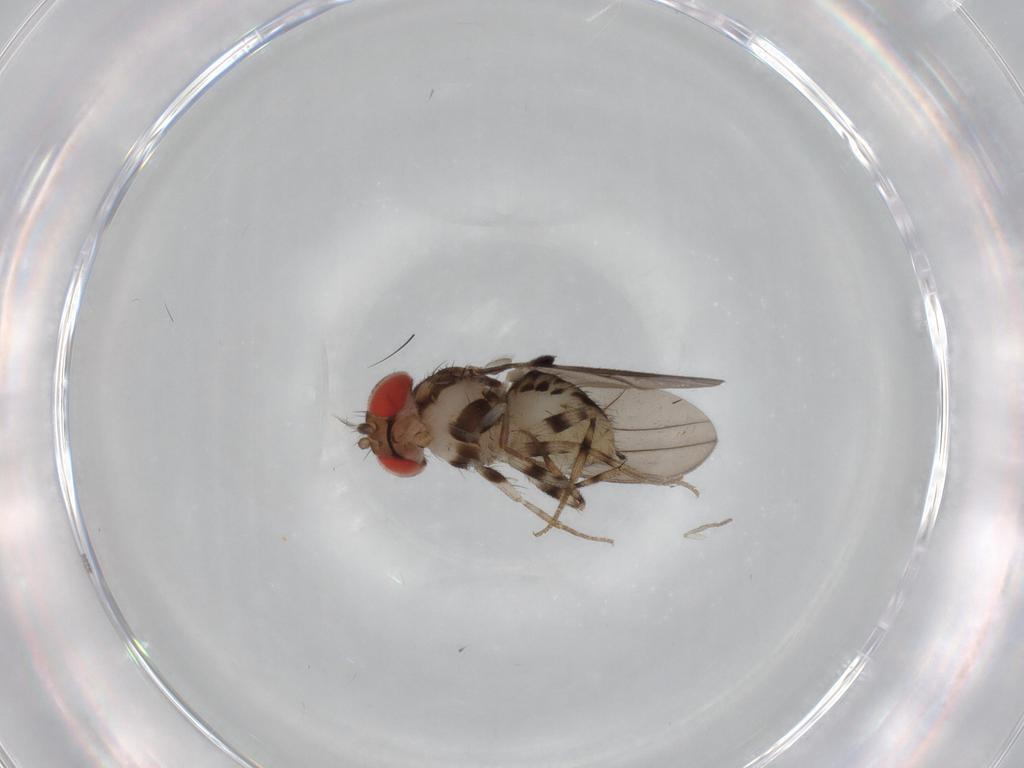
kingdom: Animalia
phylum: Arthropoda
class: Insecta
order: Diptera
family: Drosophilidae
